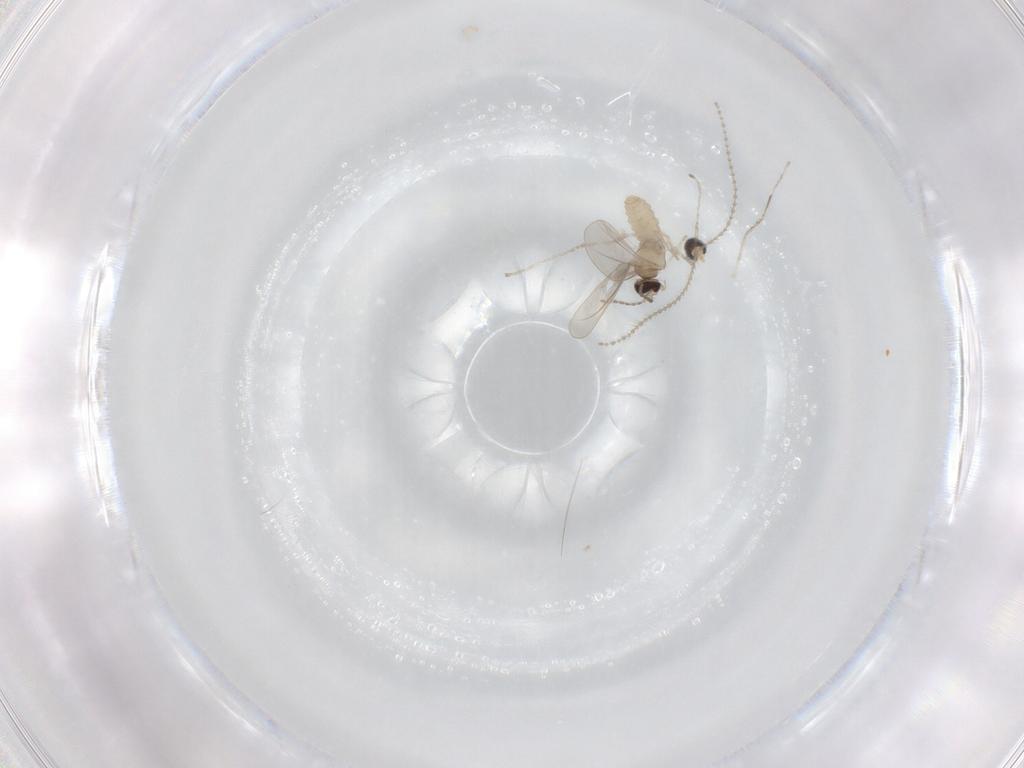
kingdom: Animalia
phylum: Arthropoda
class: Insecta
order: Diptera
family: Cecidomyiidae
